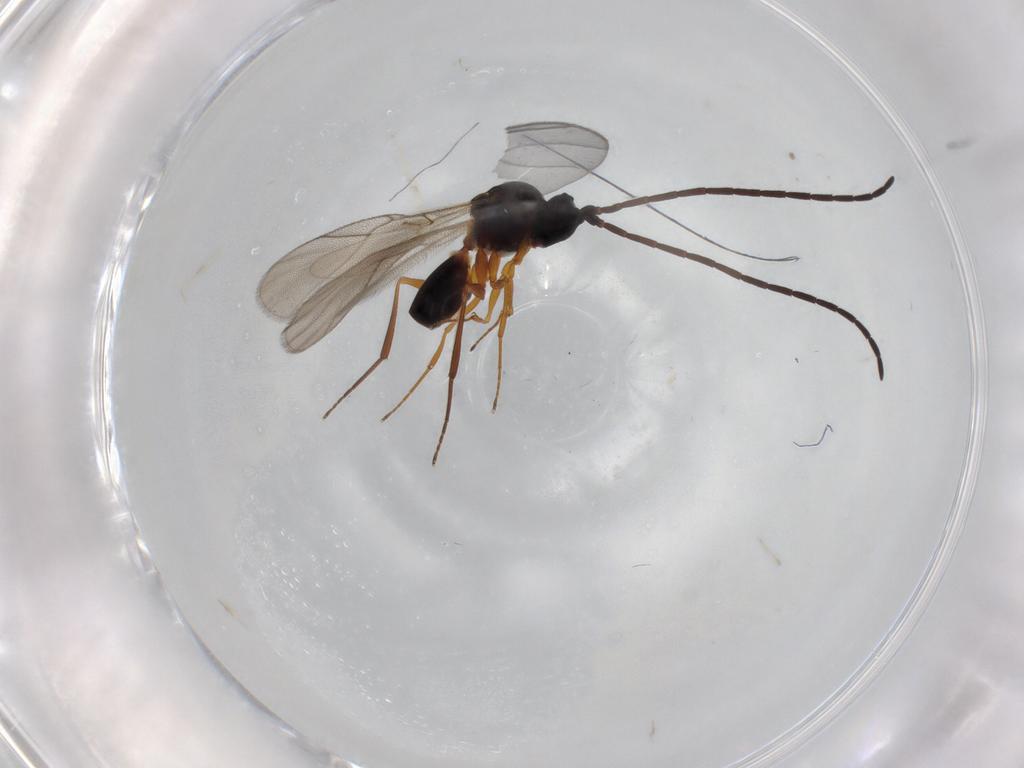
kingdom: Animalia
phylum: Arthropoda
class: Insecta
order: Hymenoptera
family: Figitidae
